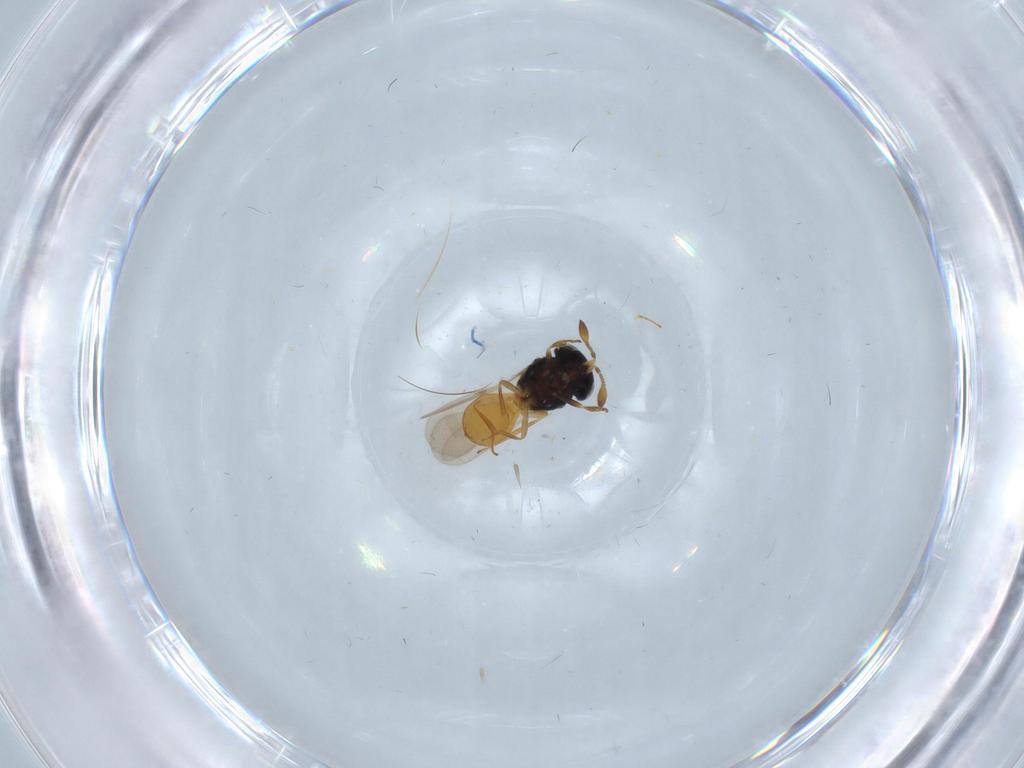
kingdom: Animalia
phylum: Arthropoda
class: Insecta
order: Hymenoptera
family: Scelionidae
